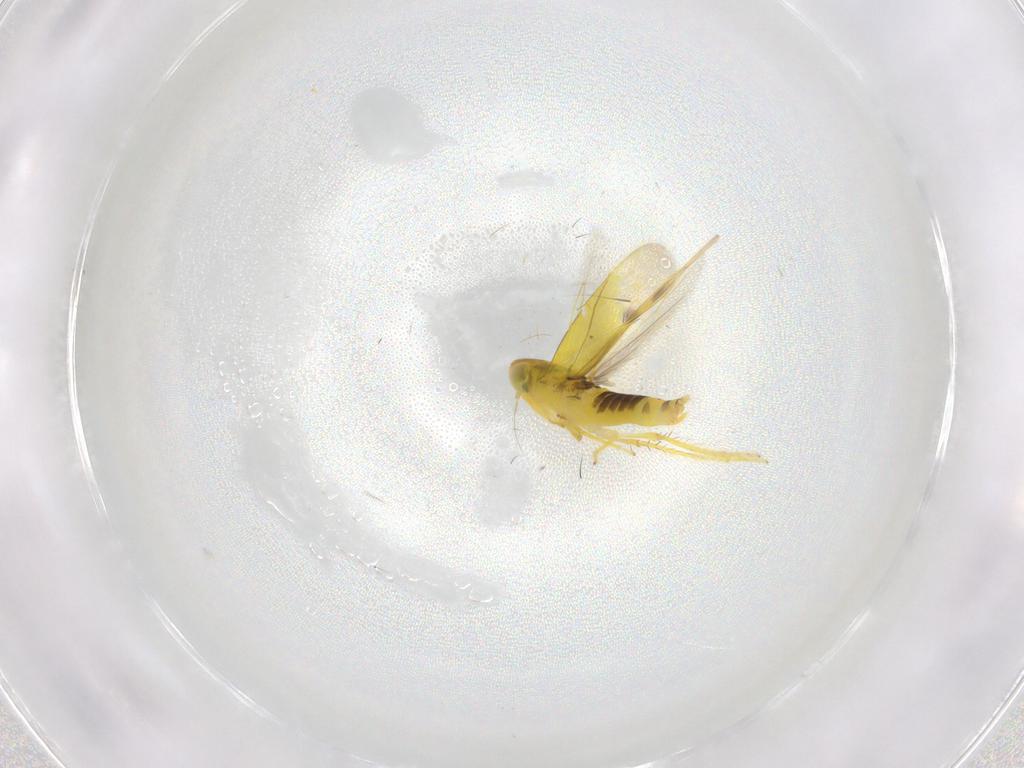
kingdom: Animalia
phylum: Arthropoda
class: Insecta
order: Hemiptera
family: Cicadellidae
